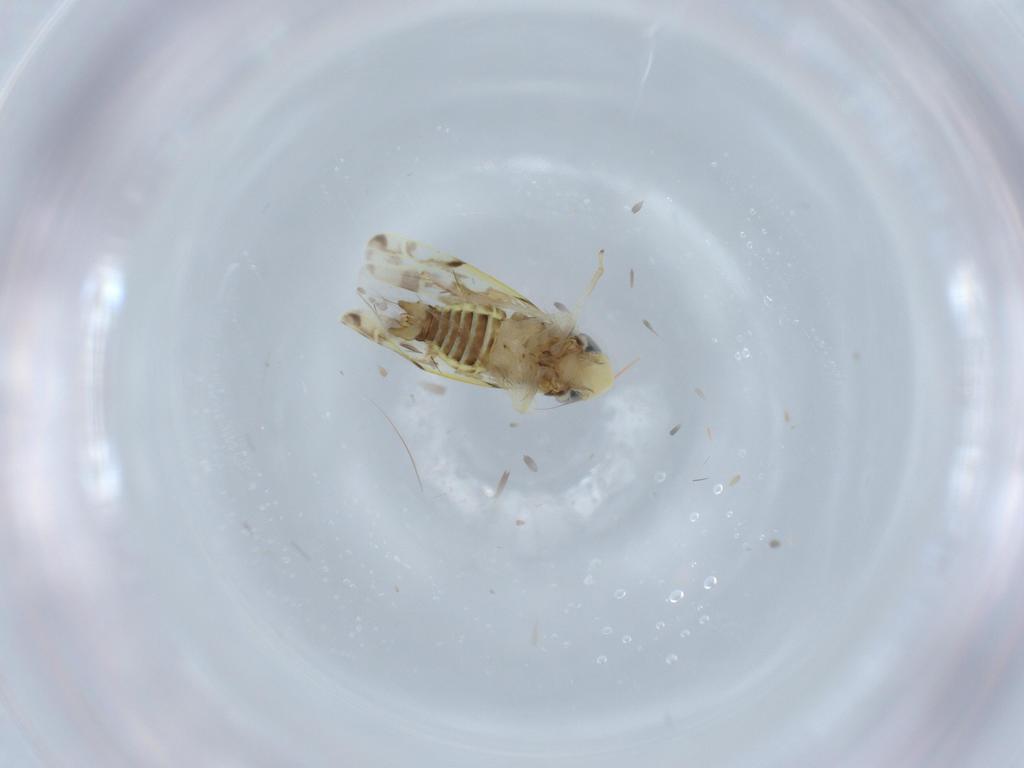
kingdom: Animalia
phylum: Arthropoda
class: Insecta
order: Hemiptera
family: Cicadellidae
